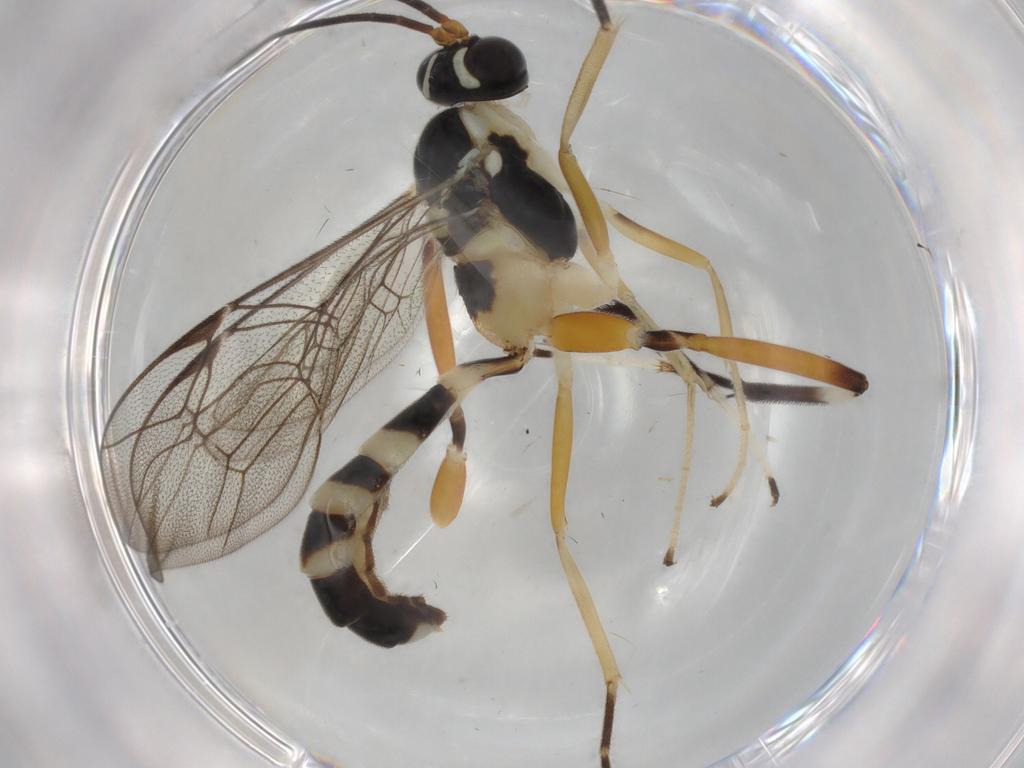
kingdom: Animalia
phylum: Arthropoda
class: Insecta
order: Hymenoptera
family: Ichneumonidae
